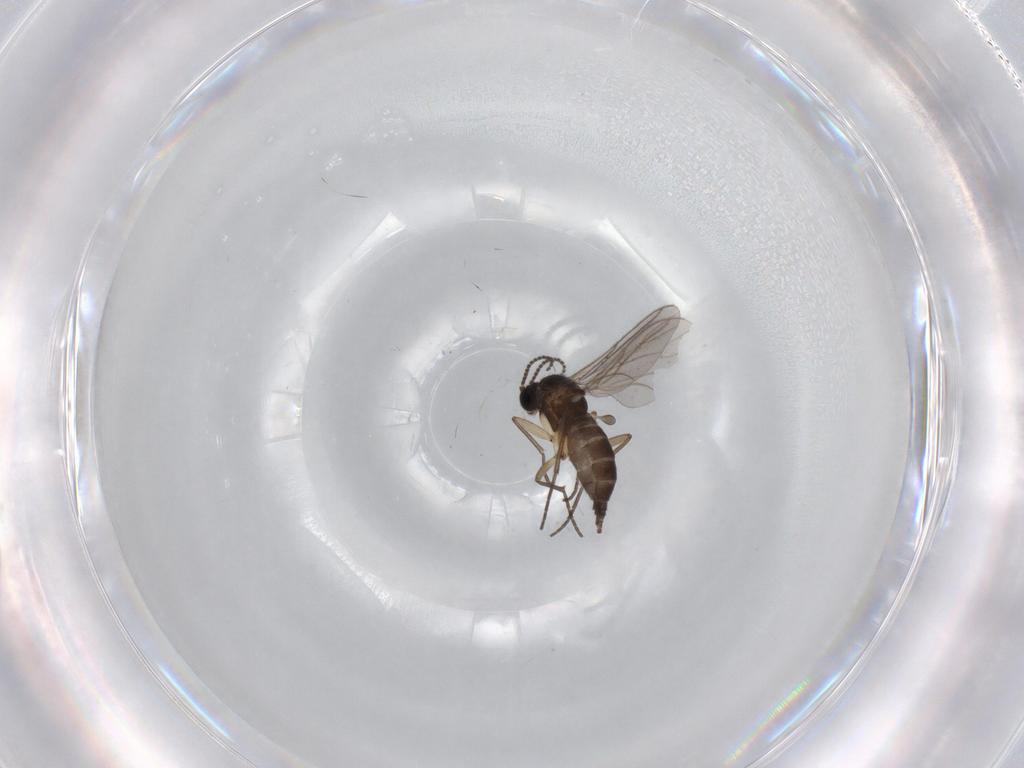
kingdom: Animalia
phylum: Arthropoda
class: Insecta
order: Diptera
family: Sciaridae
